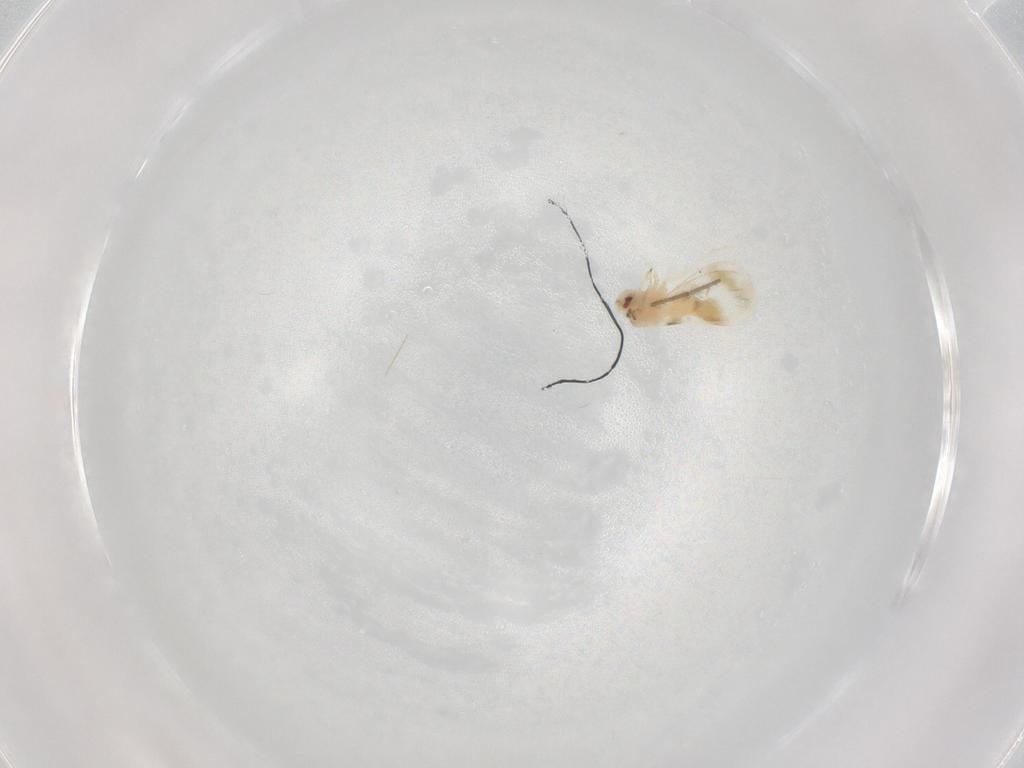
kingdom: Animalia
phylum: Arthropoda
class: Insecta
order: Hemiptera
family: Aleyrodidae
